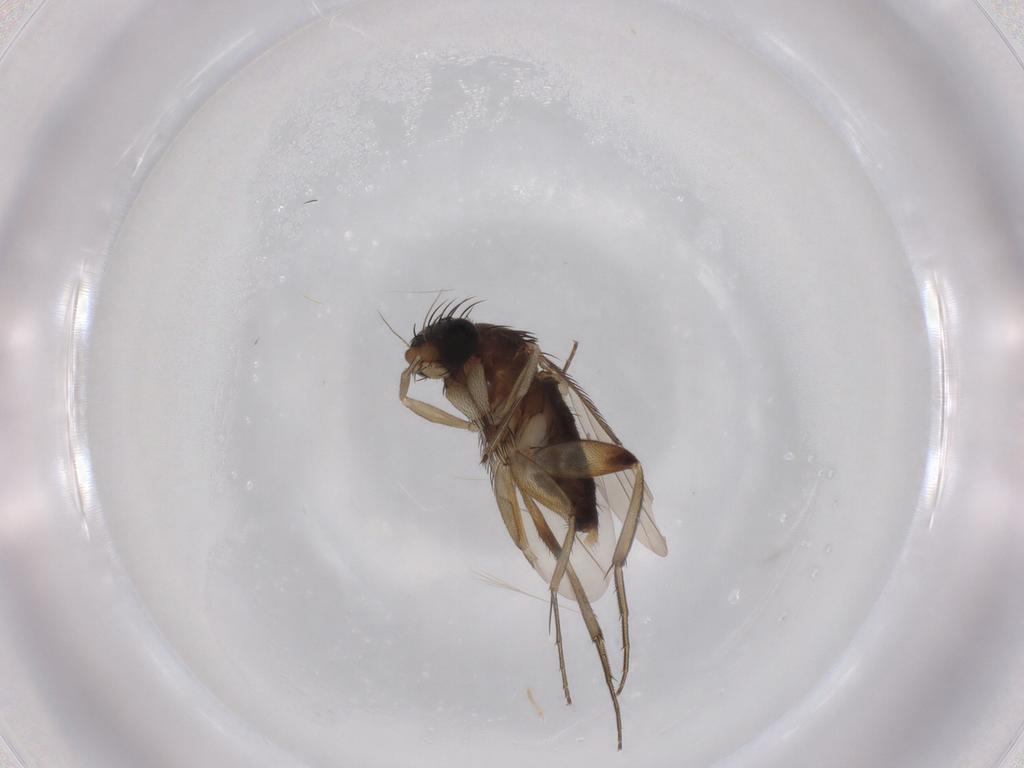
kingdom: Animalia
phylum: Arthropoda
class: Insecta
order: Diptera
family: Phoridae
